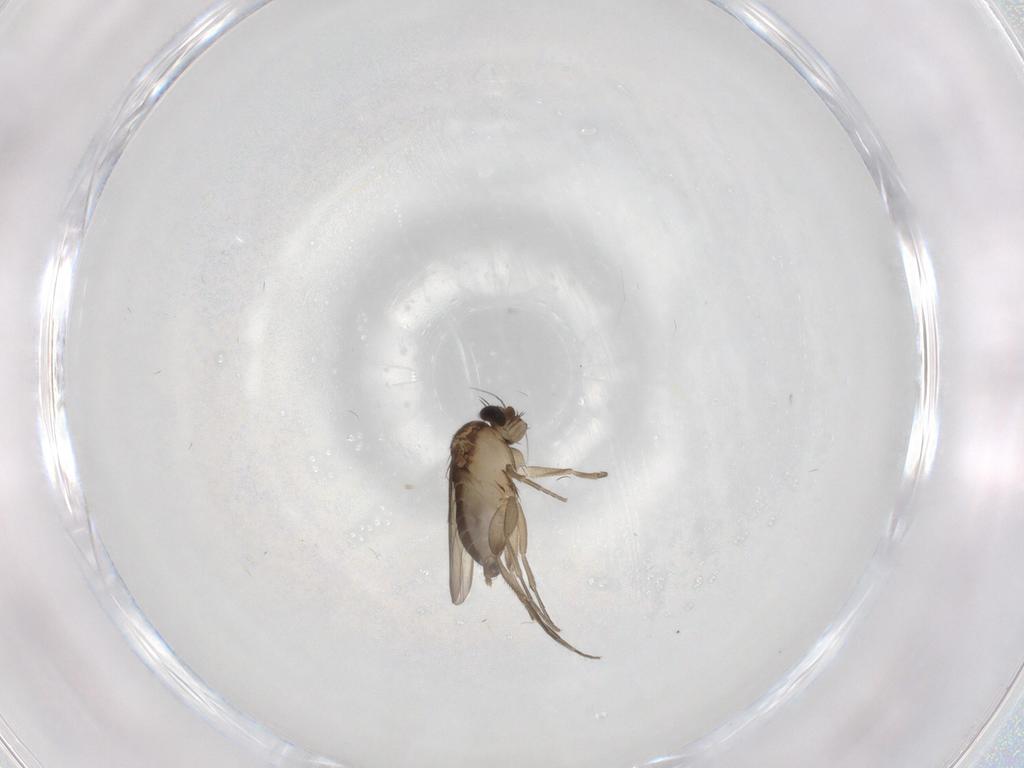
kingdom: Animalia
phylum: Arthropoda
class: Insecta
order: Diptera
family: Phoridae
